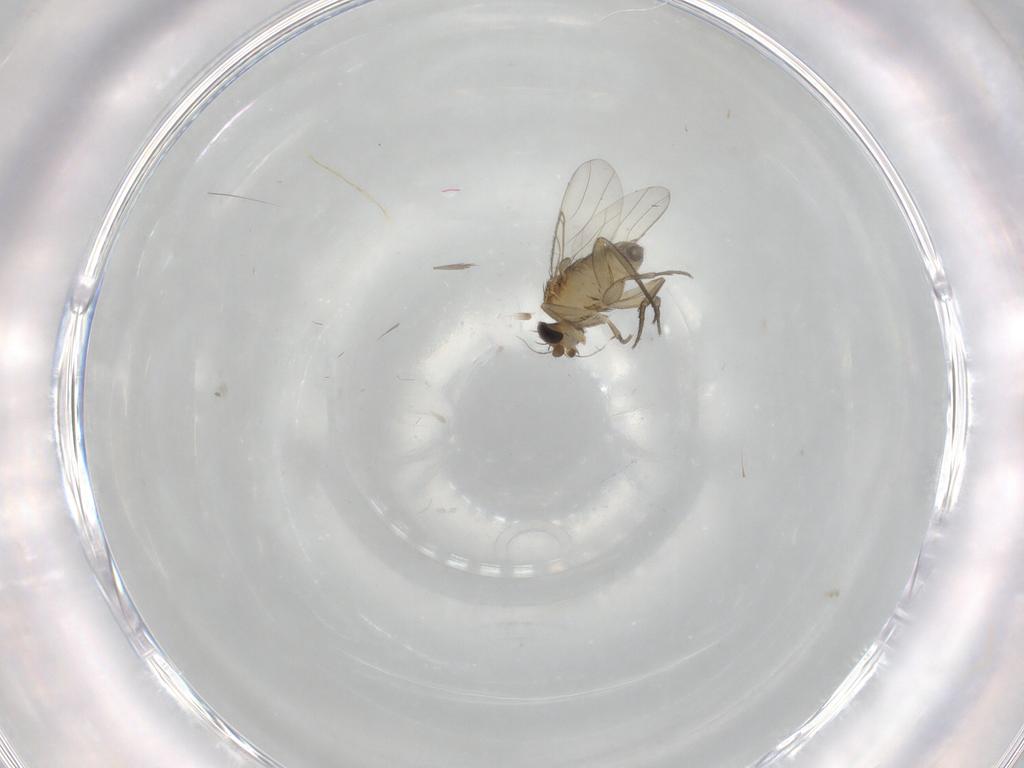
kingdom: Animalia
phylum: Arthropoda
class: Insecta
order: Diptera
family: Phoridae
